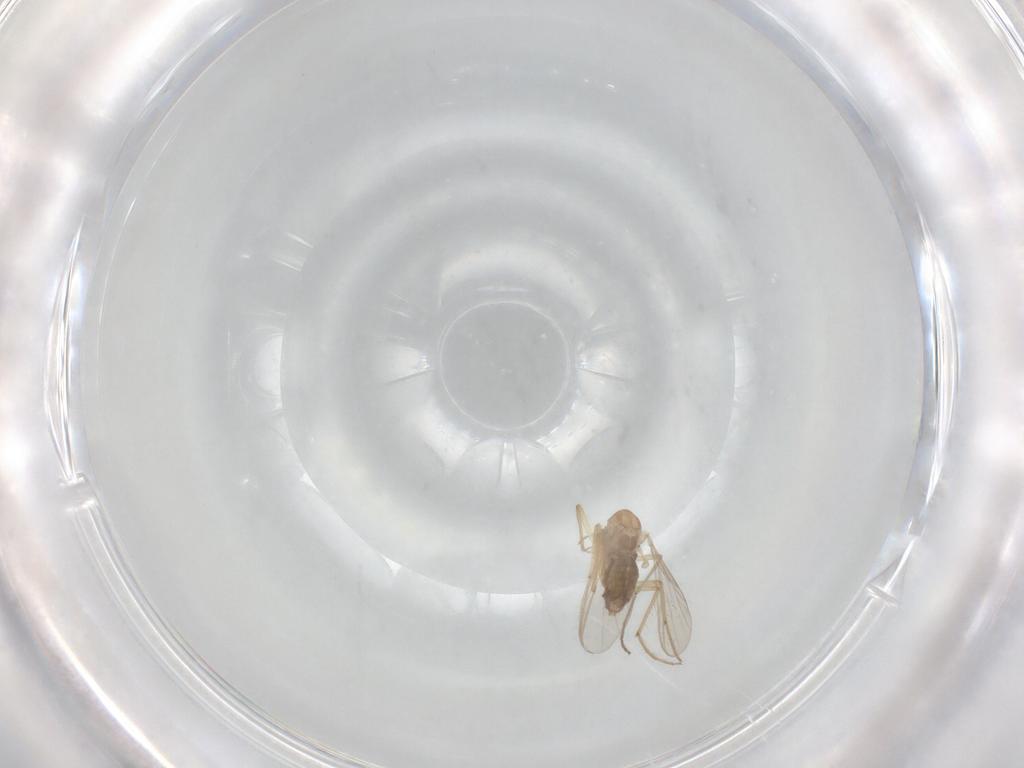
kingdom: Animalia
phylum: Arthropoda
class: Insecta
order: Diptera
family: Chironomidae
